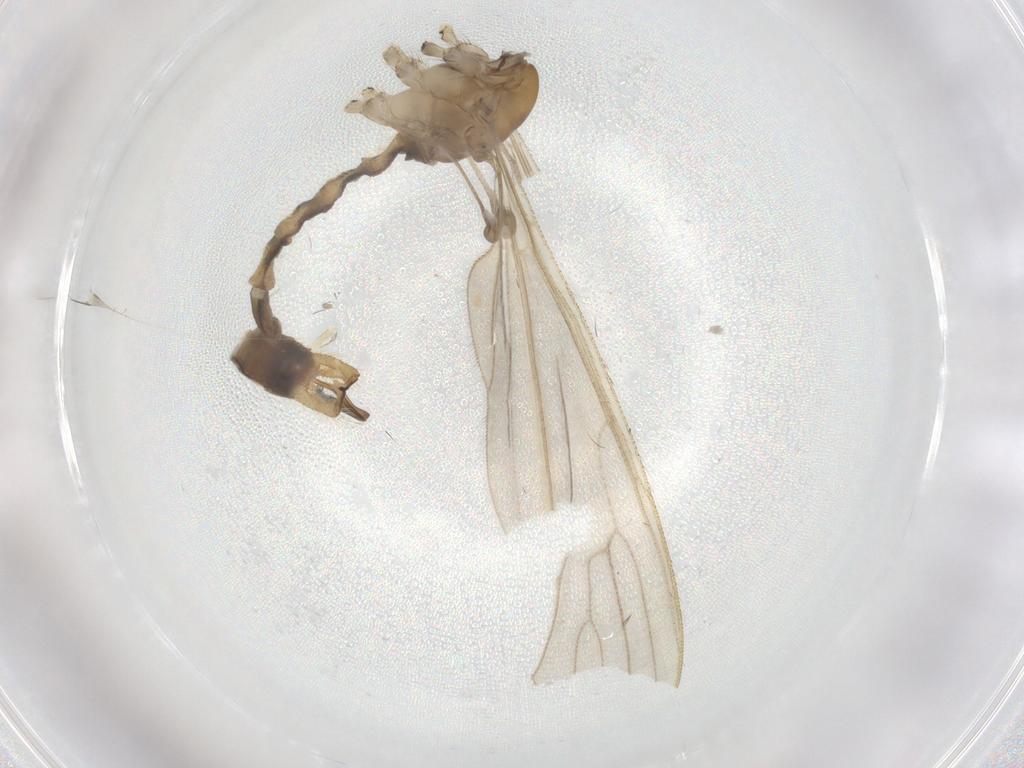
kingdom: Animalia
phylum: Arthropoda
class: Insecta
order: Diptera
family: Limoniidae
